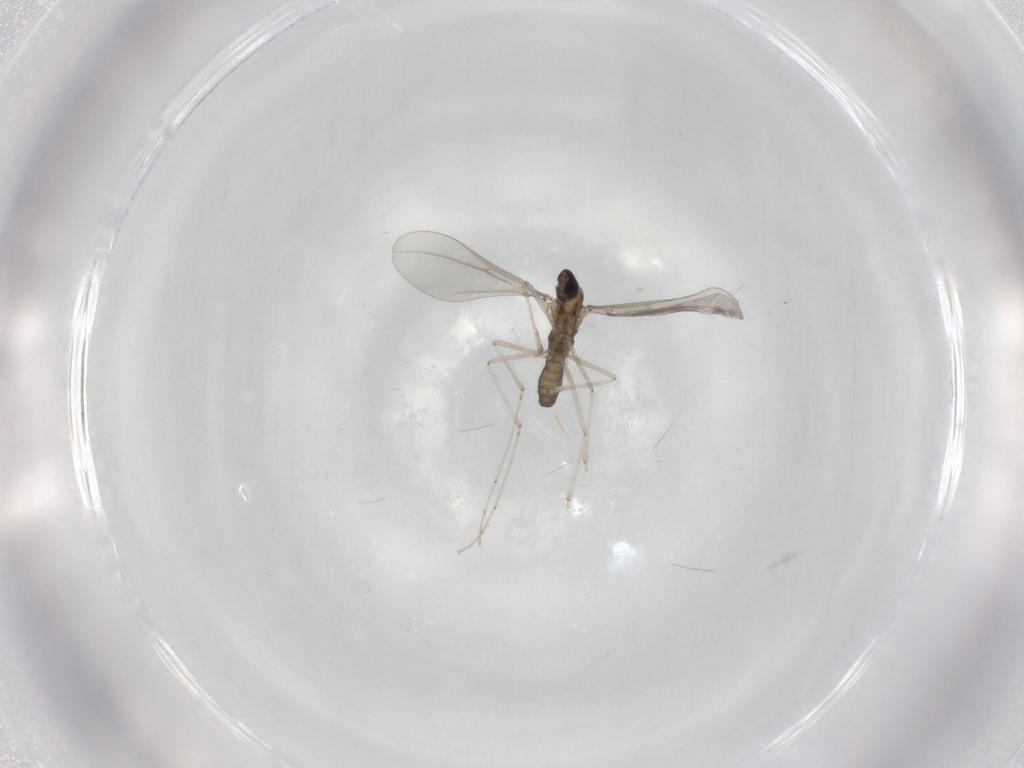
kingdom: Animalia
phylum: Arthropoda
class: Insecta
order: Diptera
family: Cecidomyiidae
